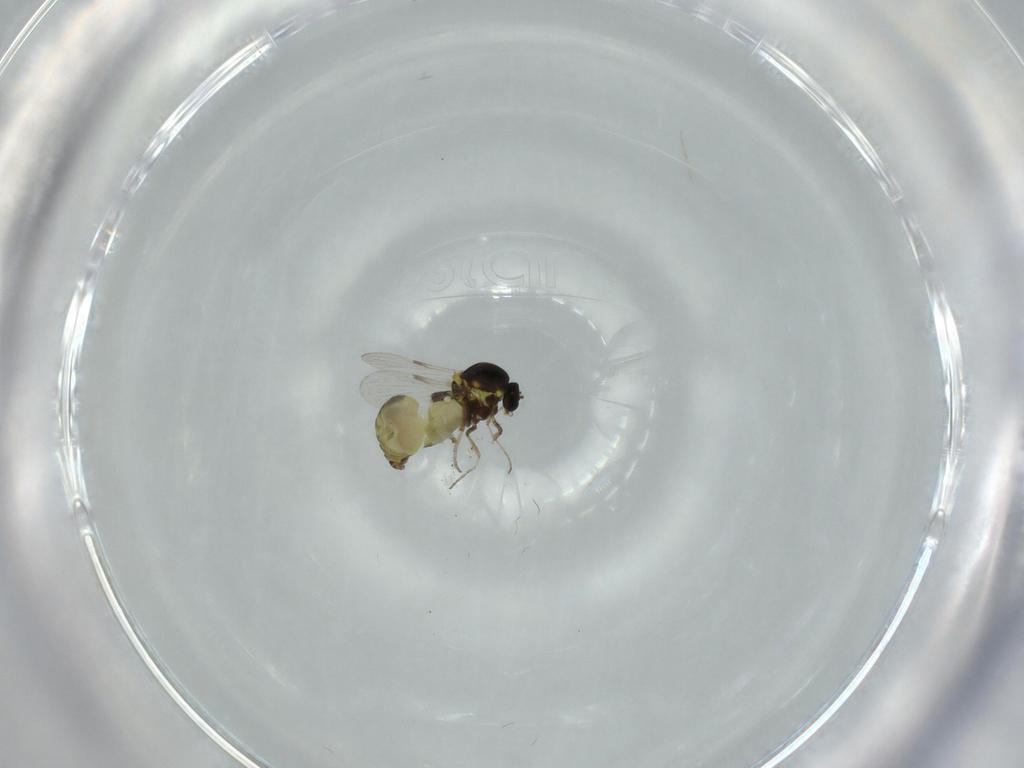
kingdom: Animalia
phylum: Arthropoda
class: Insecta
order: Diptera
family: Ceratopogonidae
